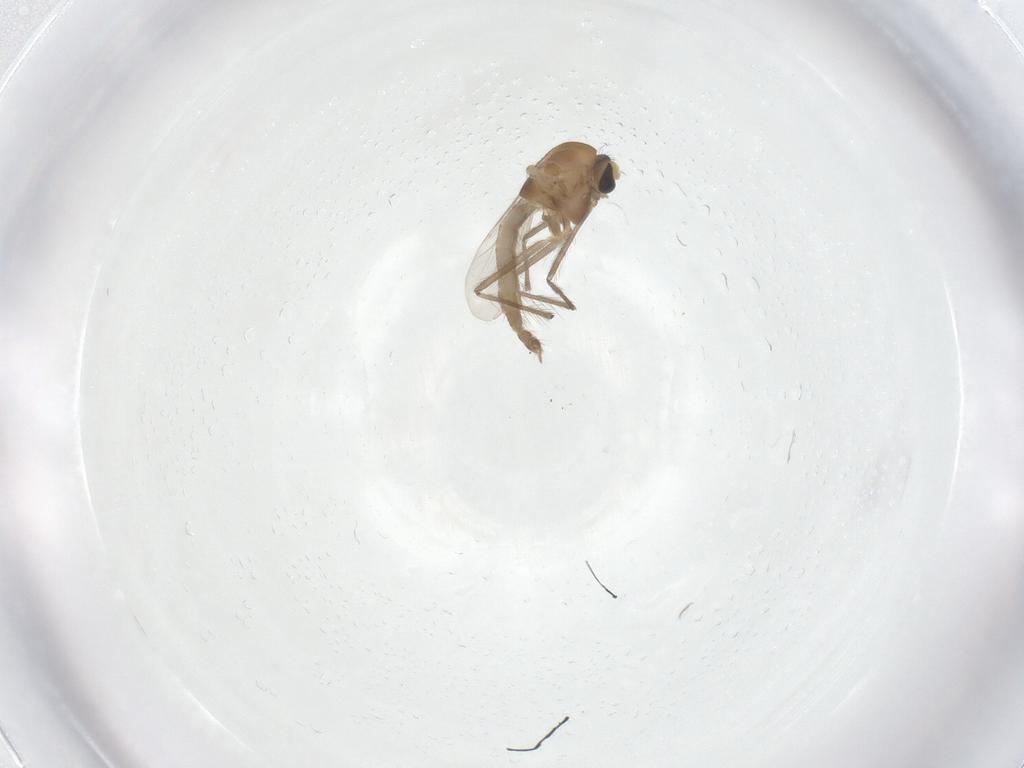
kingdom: Animalia
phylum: Arthropoda
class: Insecta
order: Diptera
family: Chironomidae
